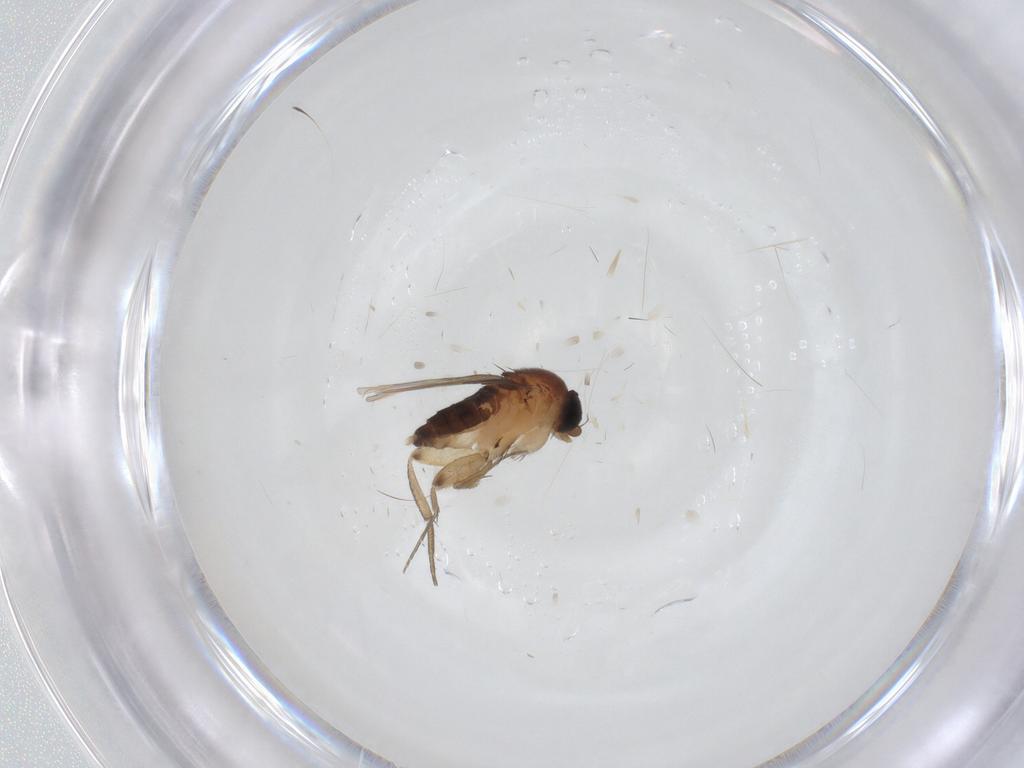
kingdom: Animalia
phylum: Arthropoda
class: Insecta
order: Diptera
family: Phoridae
